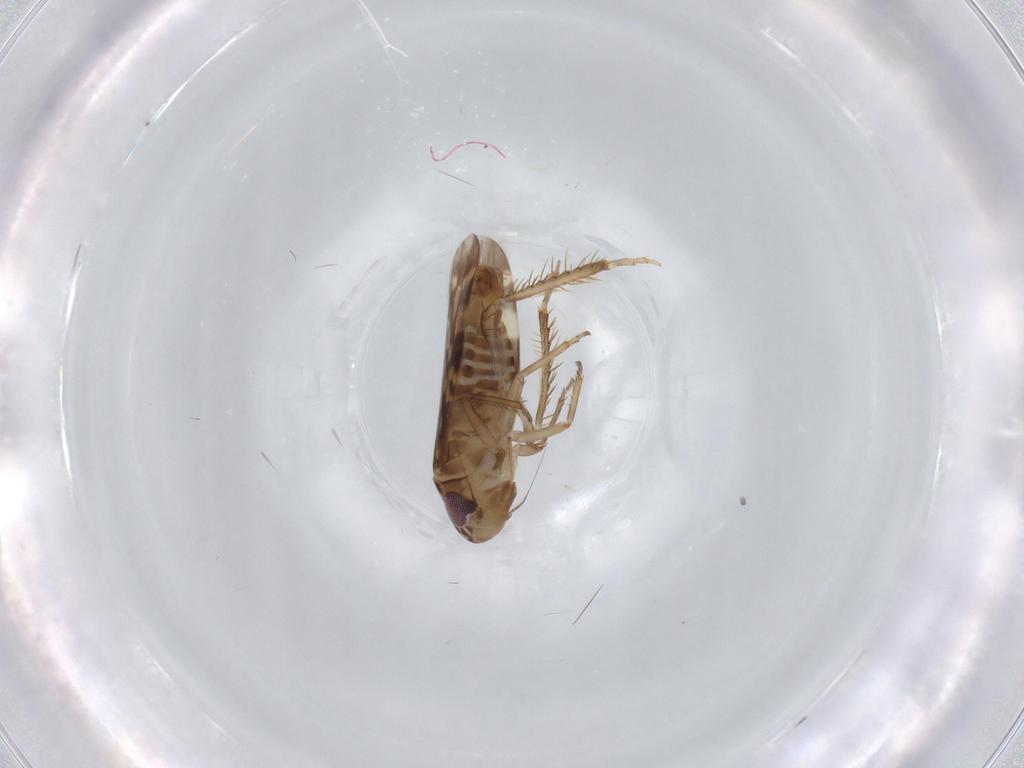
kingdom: Animalia
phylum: Arthropoda
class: Insecta
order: Hemiptera
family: Cicadellidae
